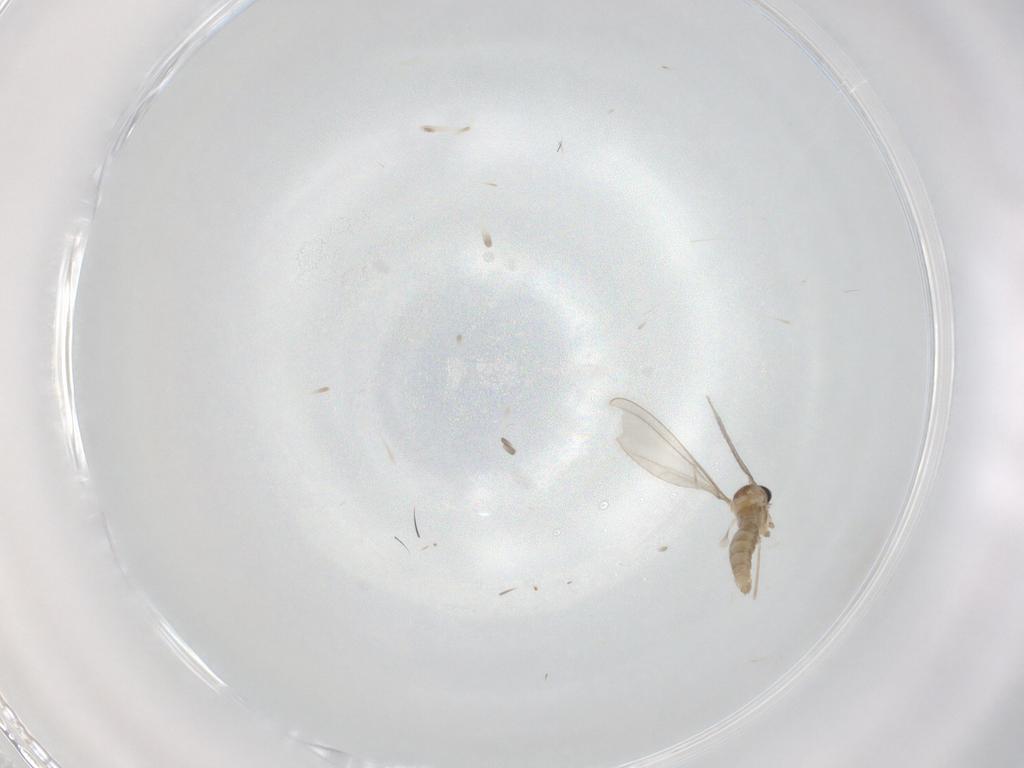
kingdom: Animalia
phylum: Arthropoda
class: Insecta
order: Diptera
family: Cecidomyiidae
